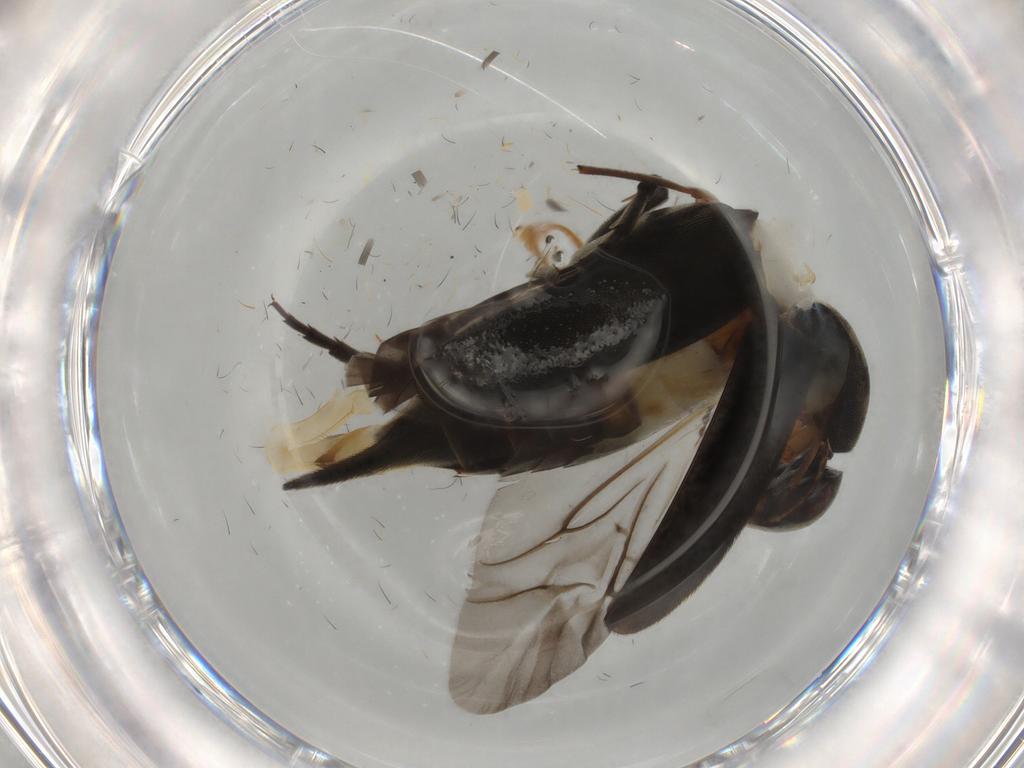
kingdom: Animalia
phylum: Arthropoda
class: Insecta
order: Coleoptera
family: Mordellidae
